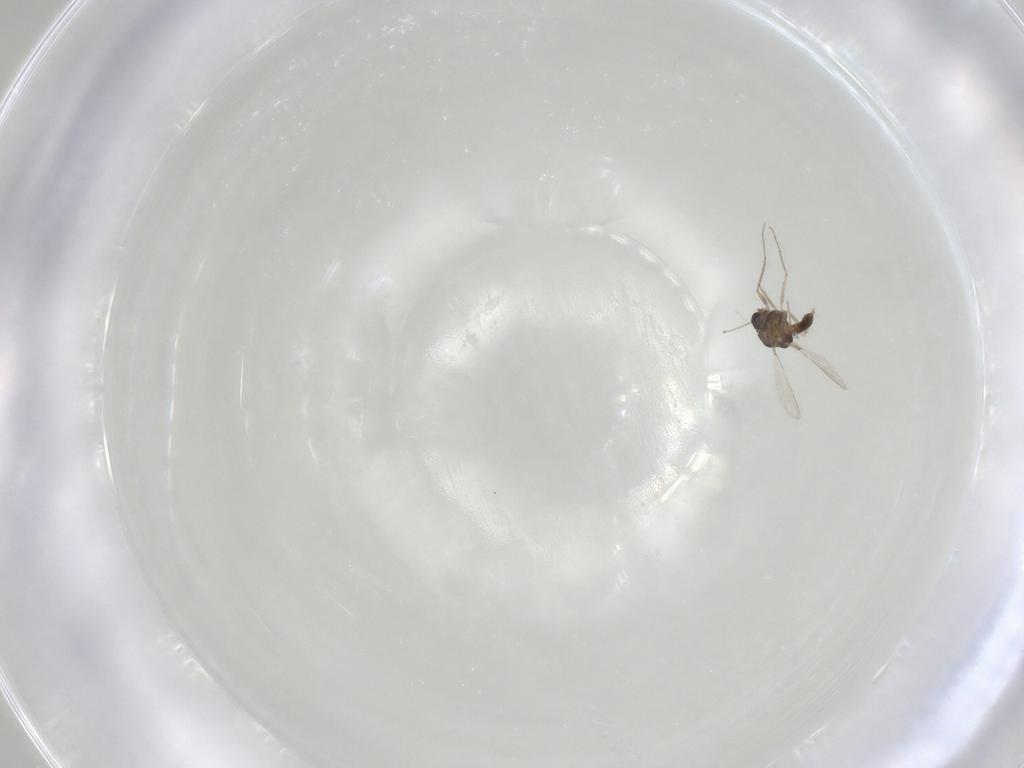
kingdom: Animalia
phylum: Arthropoda
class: Insecta
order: Diptera
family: Chironomidae
